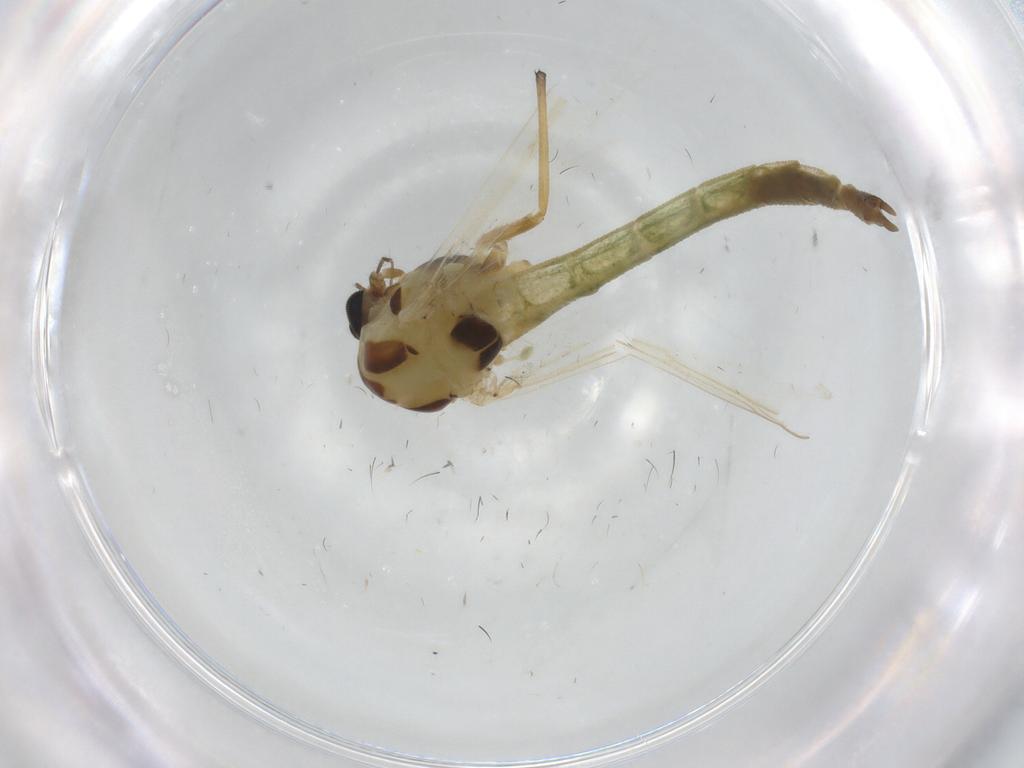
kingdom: Animalia
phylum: Arthropoda
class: Insecta
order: Diptera
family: Chironomidae
